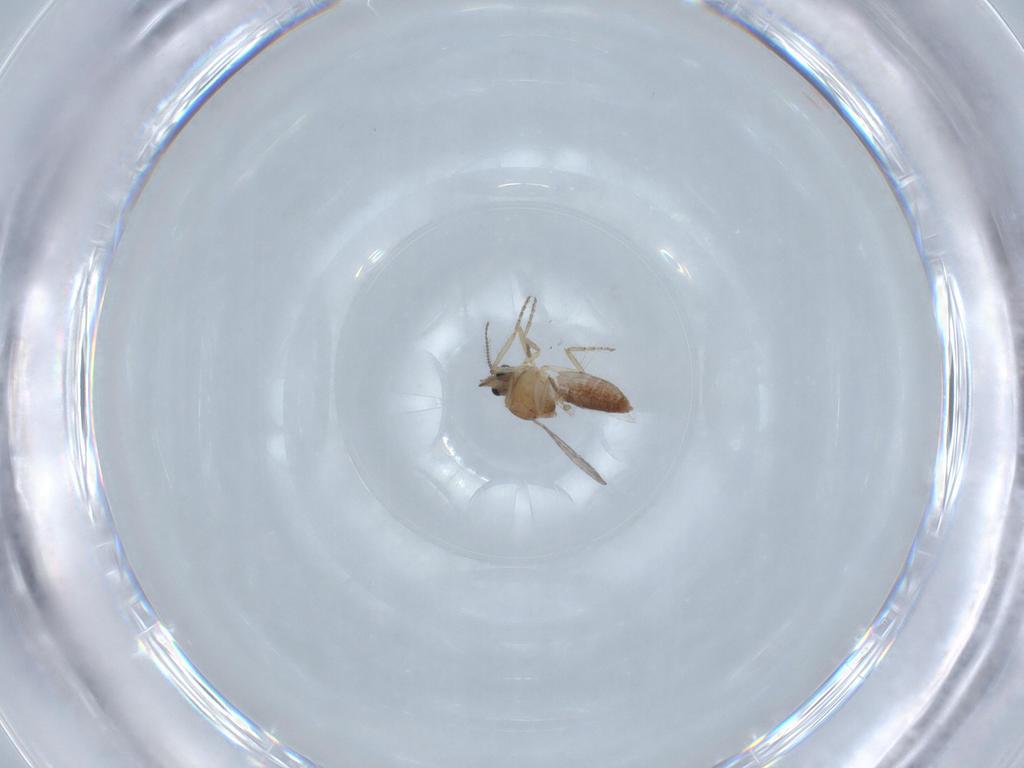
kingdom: Animalia
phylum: Arthropoda
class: Insecta
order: Diptera
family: Ceratopogonidae
